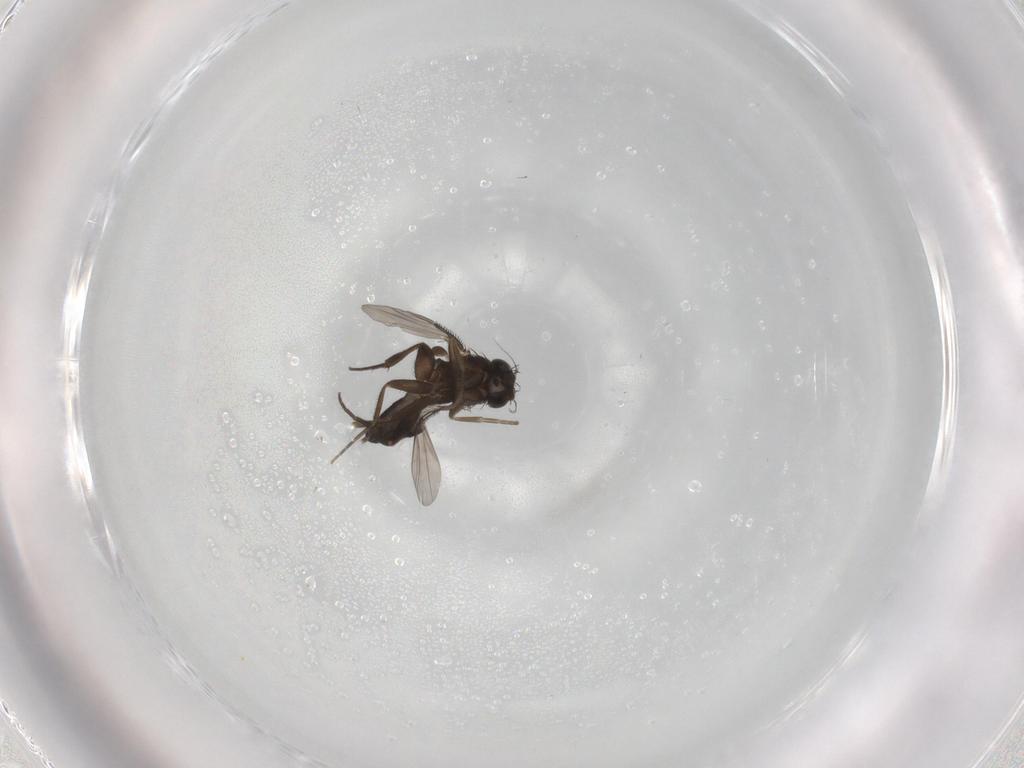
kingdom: Animalia
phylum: Arthropoda
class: Insecta
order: Diptera
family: Phoridae
